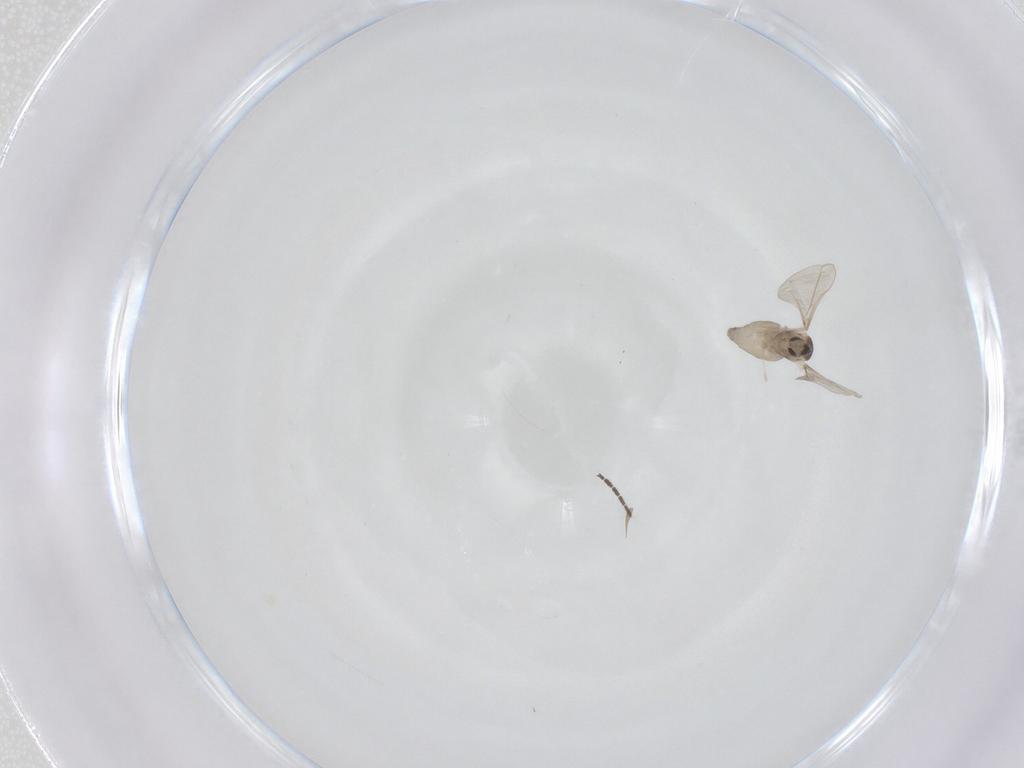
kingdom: Animalia
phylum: Arthropoda
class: Insecta
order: Diptera
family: Cecidomyiidae
